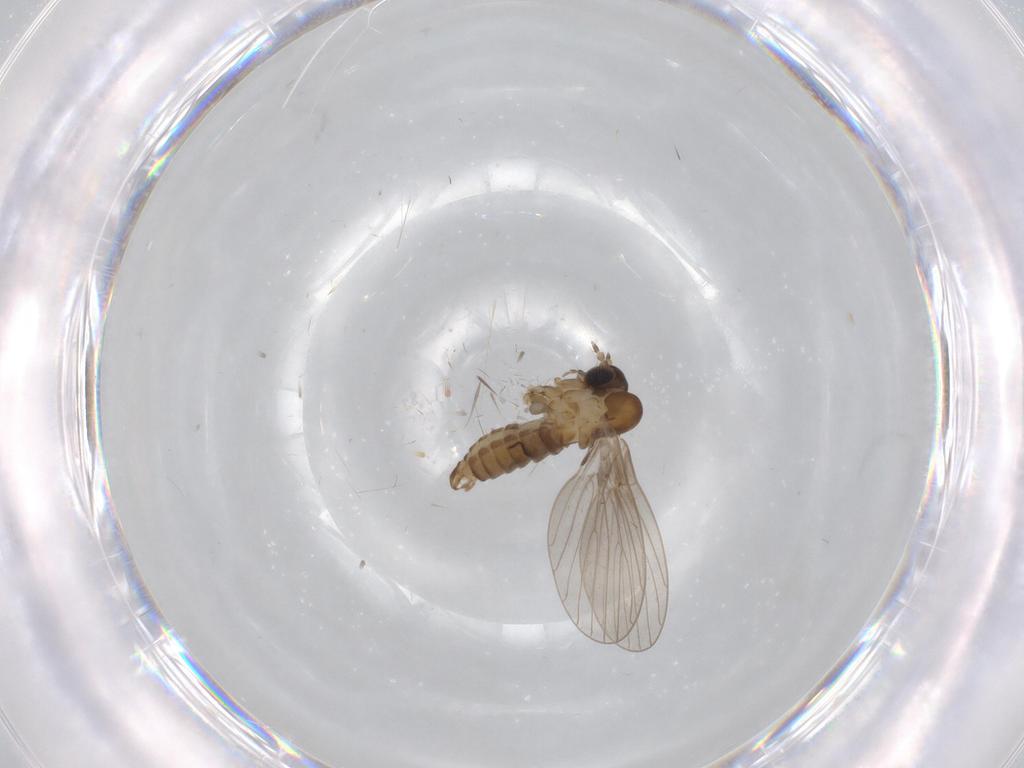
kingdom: Animalia
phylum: Arthropoda
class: Insecta
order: Diptera
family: Psychodidae
